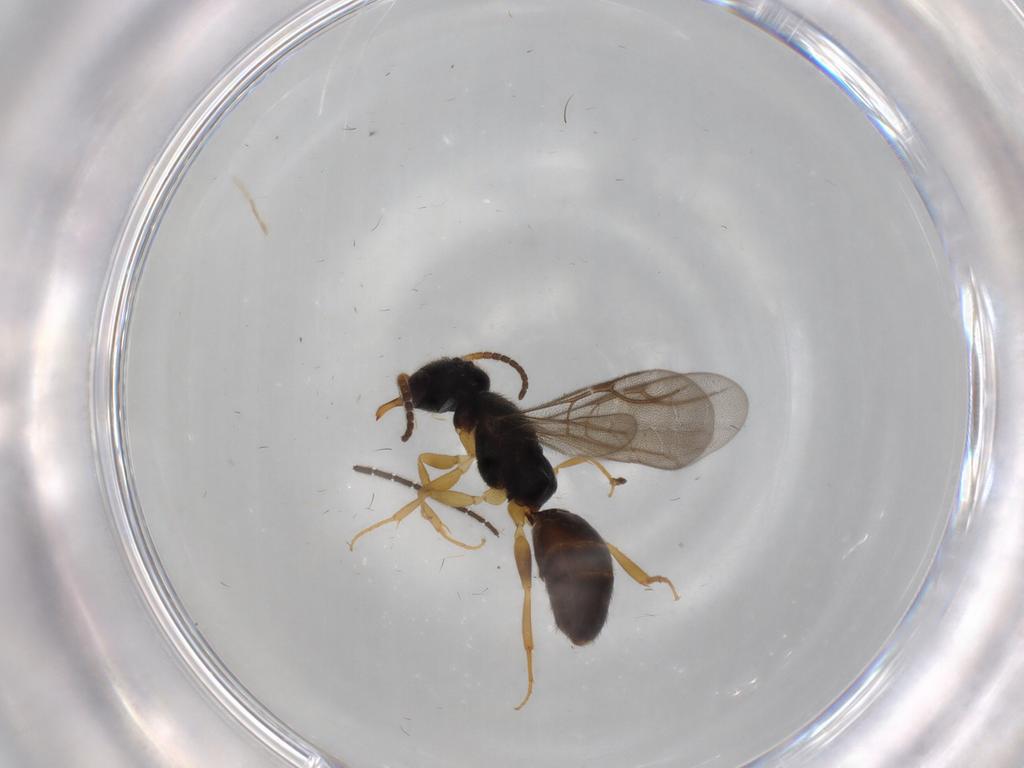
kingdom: Animalia
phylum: Arthropoda
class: Insecta
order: Hymenoptera
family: Bethylidae
